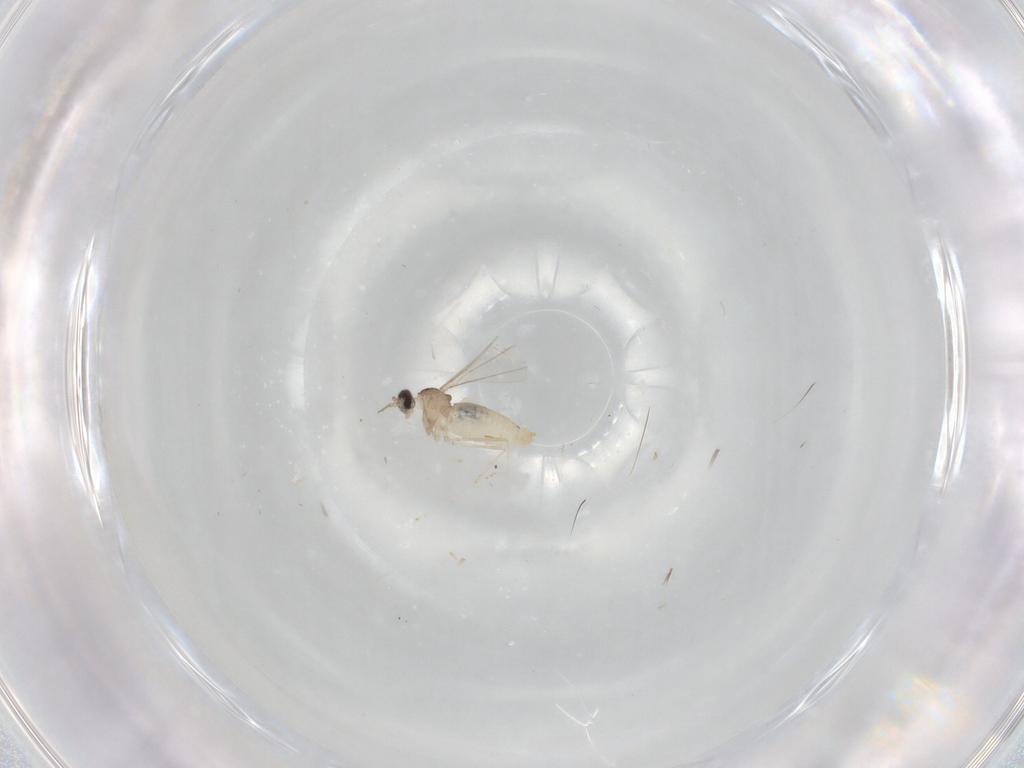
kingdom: Animalia
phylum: Arthropoda
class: Insecta
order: Diptera
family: Cecidomyiidae
